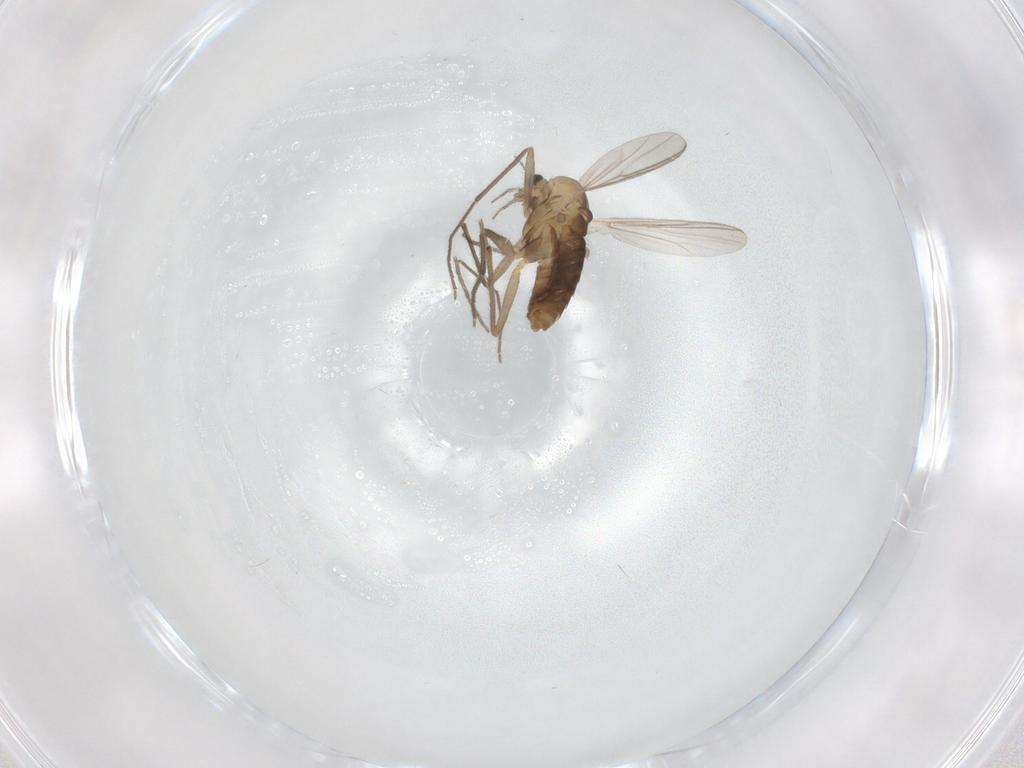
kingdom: Animalia
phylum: Arthropoda
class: Insecta
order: Diptera
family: Chironomidae
